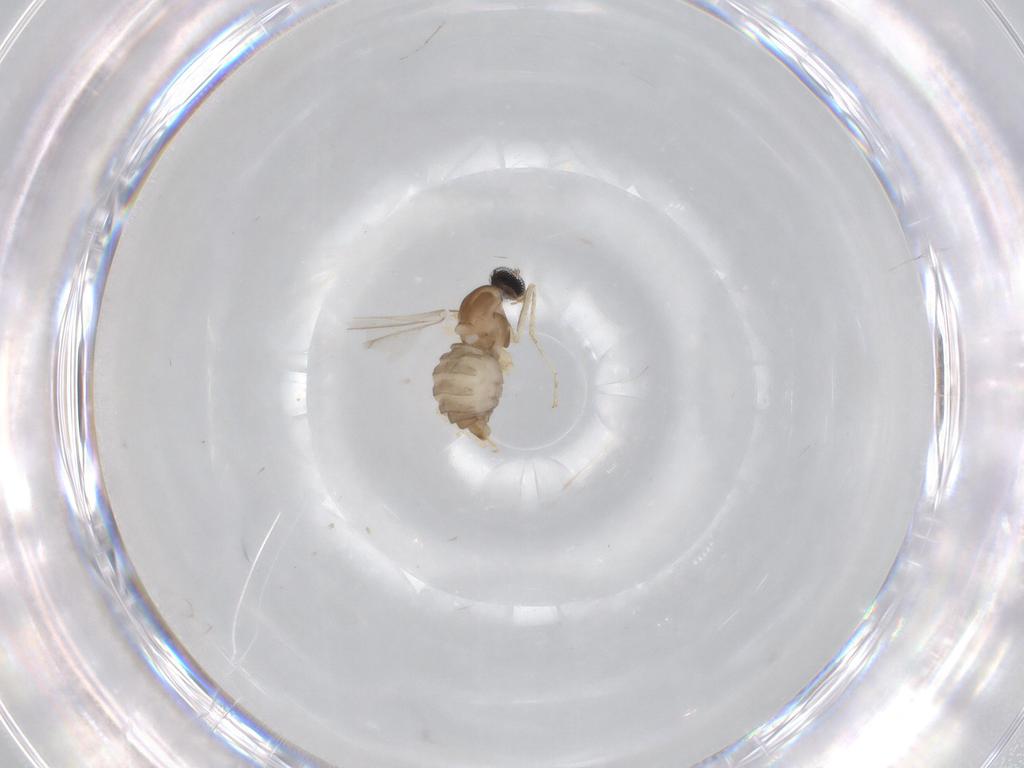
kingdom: Animalia
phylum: Arthropoda
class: Insecta
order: Diptera
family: Cecidomyiidae
